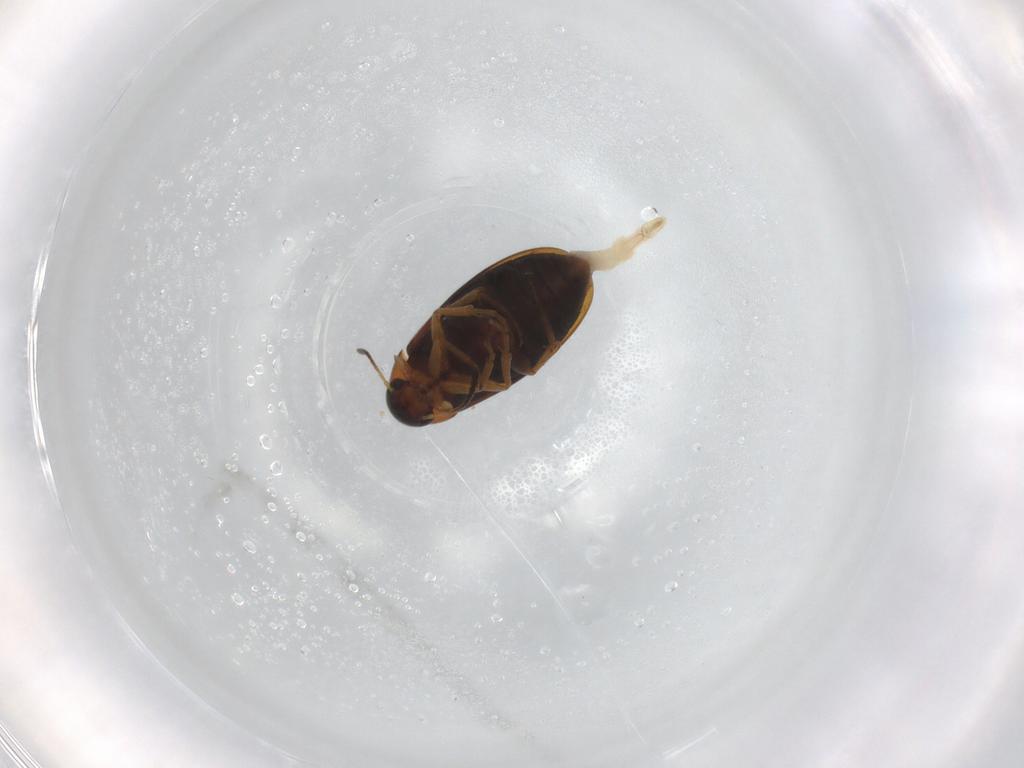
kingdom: Animalia
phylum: Arthropoda
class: Insecta
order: Coleoptera
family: Scraptiidae
